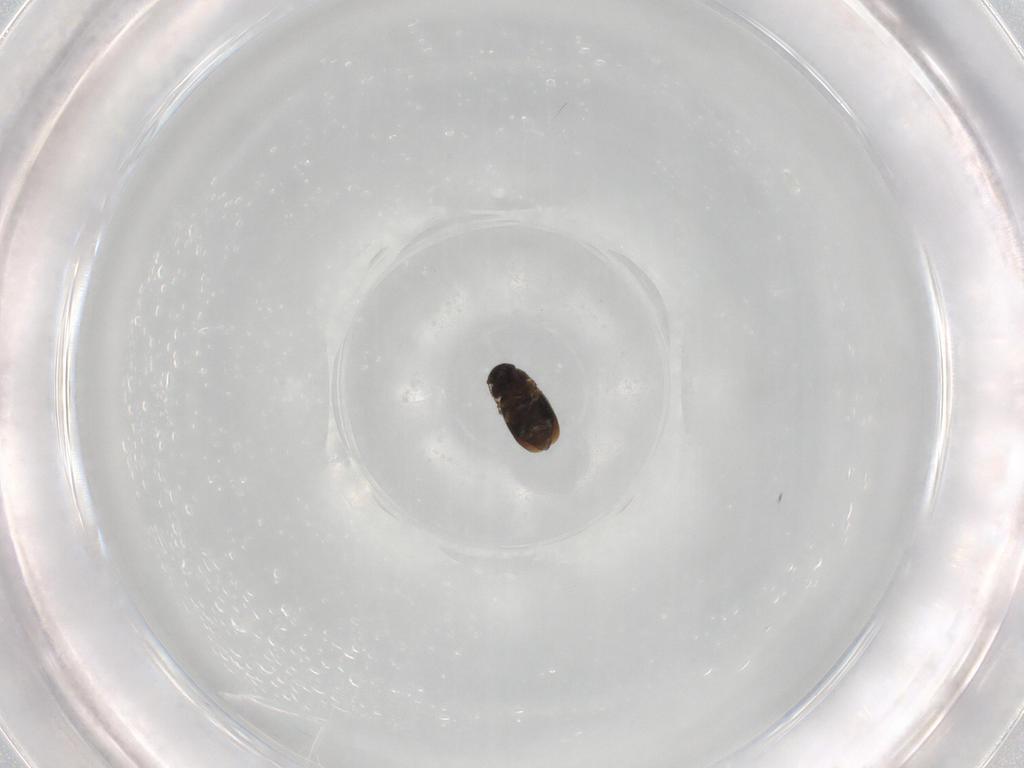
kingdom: Animalia
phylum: Arthropoda
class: Insecta
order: Coleoptera
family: Ptiliidae
